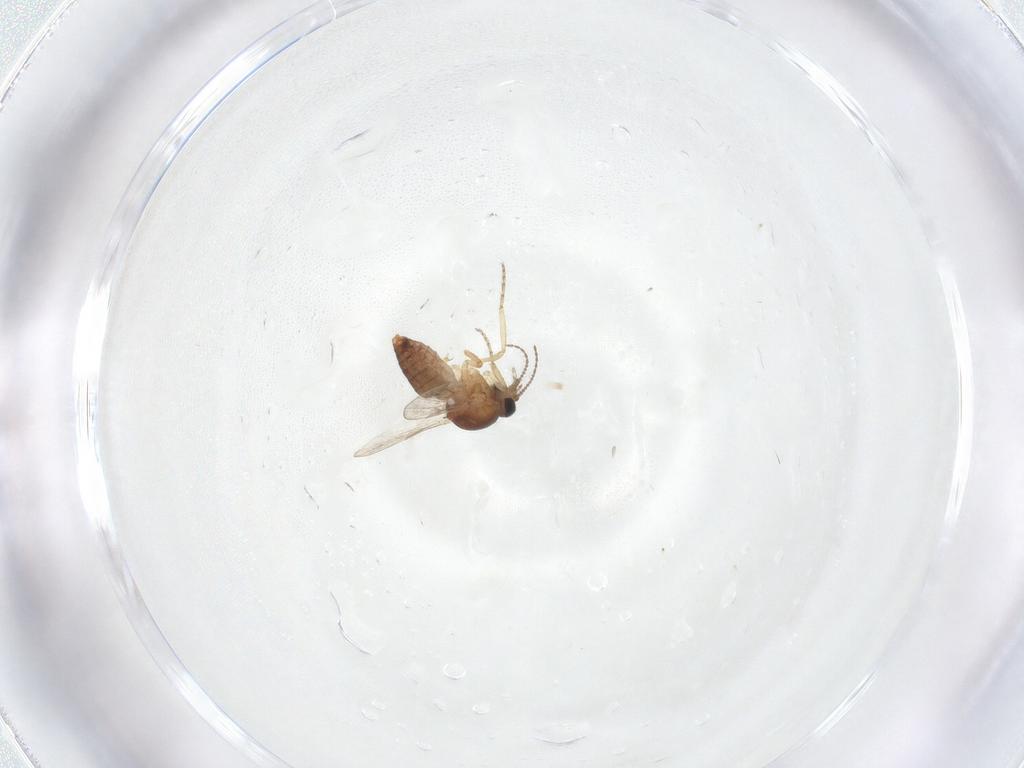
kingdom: Animalia
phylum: Arthropoda
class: Insecta
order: Diptera
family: Ceratopogonidae
